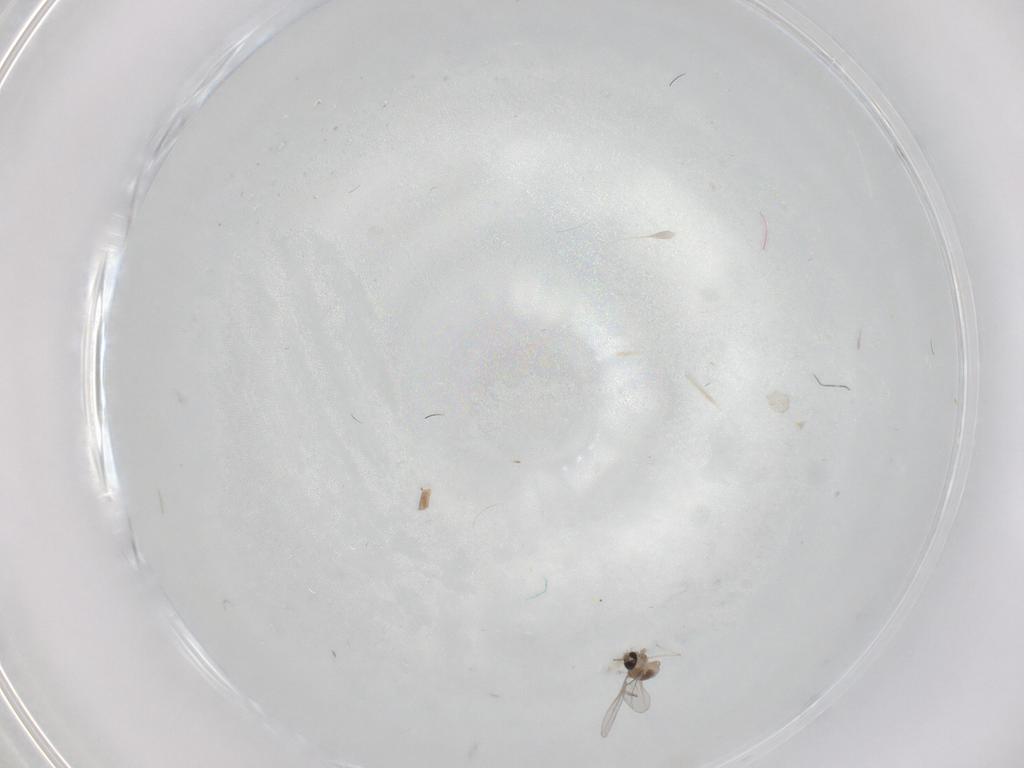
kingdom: Animalia
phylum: Arthropoda
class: Insecta
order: Diptera
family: Cecidomyiidae
